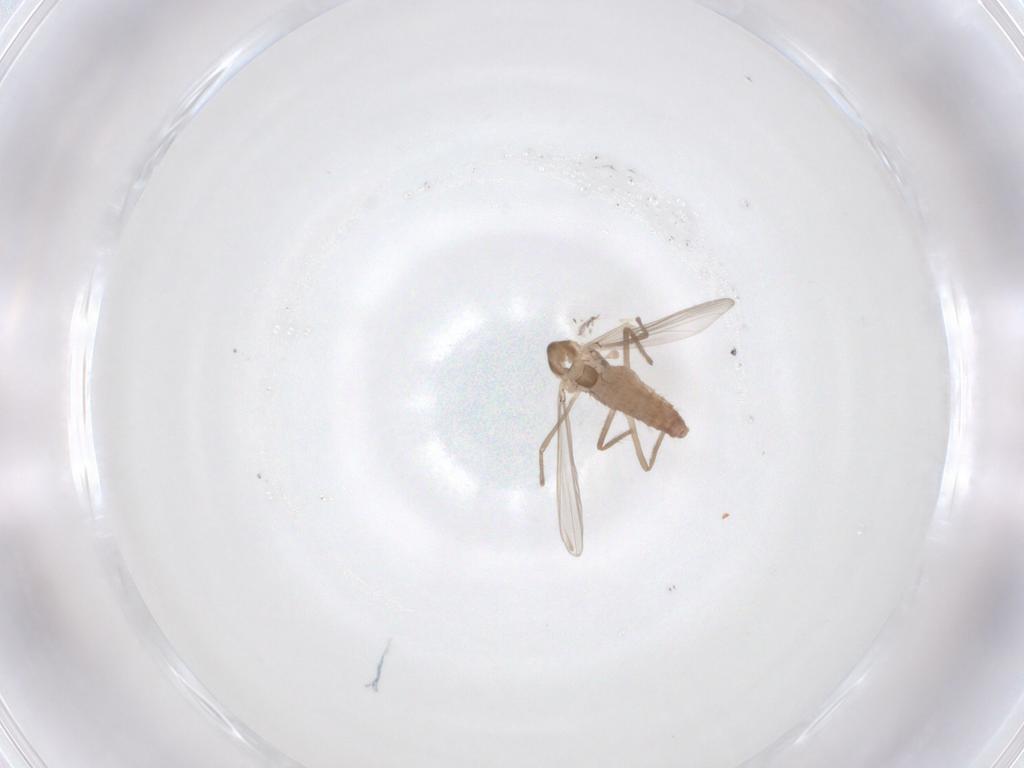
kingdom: Animalia
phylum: Arthropoda
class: Insecta
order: Diptera
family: Chironomidae
